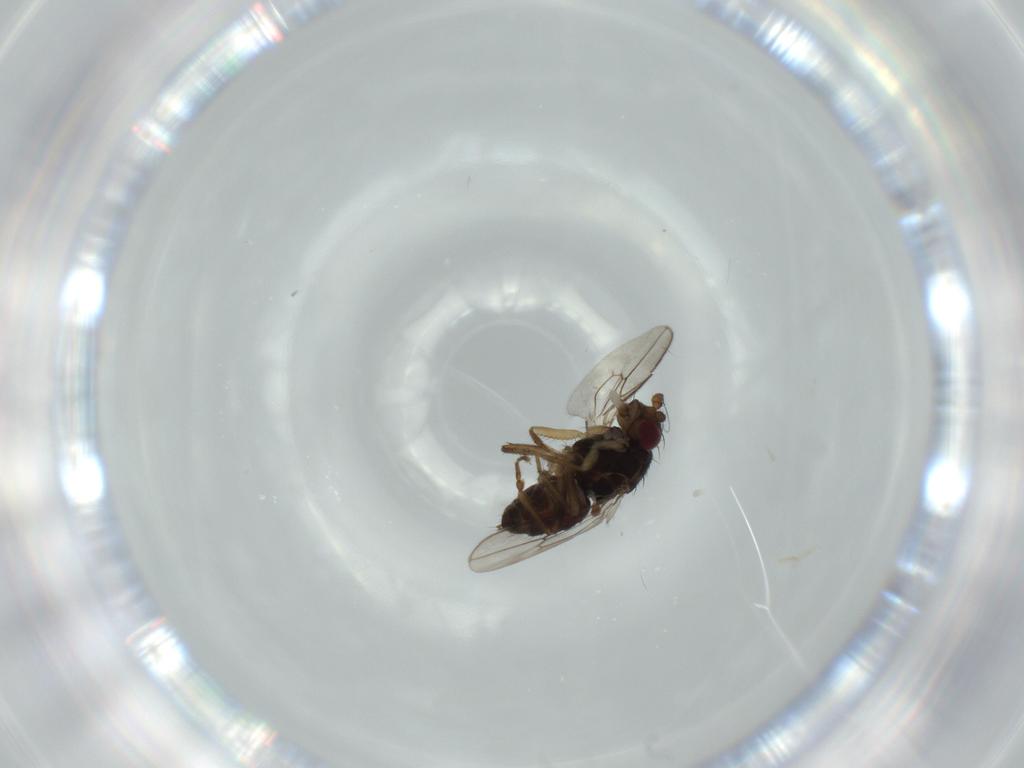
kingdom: Animalia
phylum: Arthropoda
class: Insecta
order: Diptera
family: Sphaeroceridae
